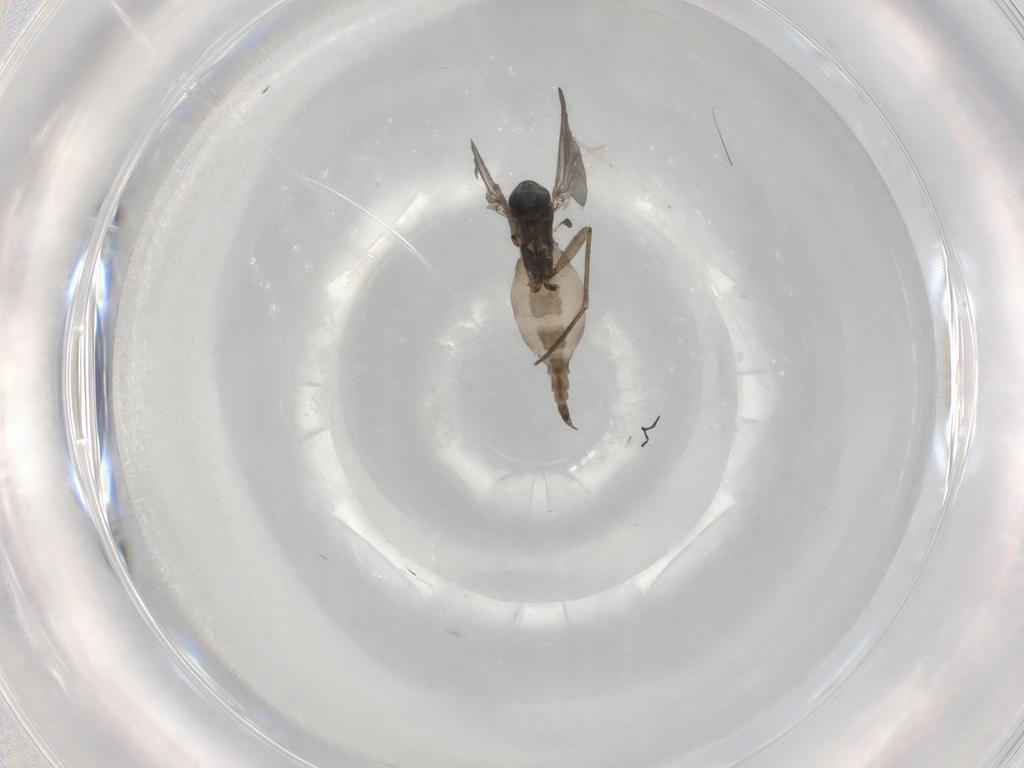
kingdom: Animalia
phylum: Arthropoda
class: Insecta
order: Diptera
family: Sciaridae
